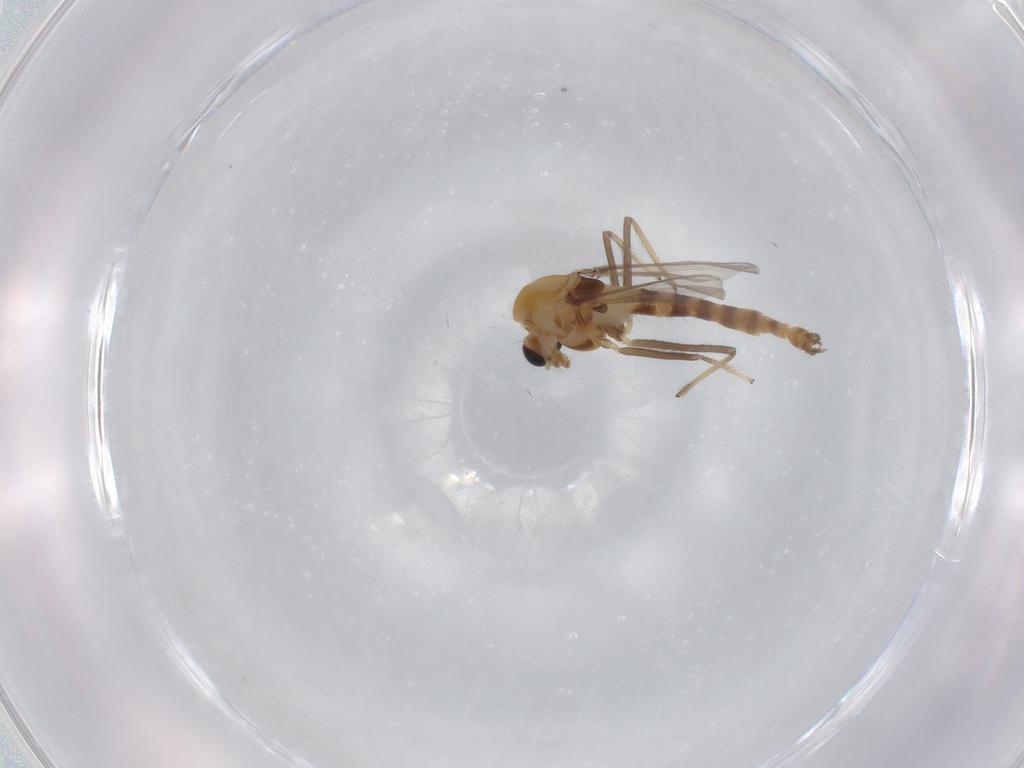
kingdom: Animalia
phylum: Arthropoda
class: Insecta
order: Diptera
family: Chironomidae
